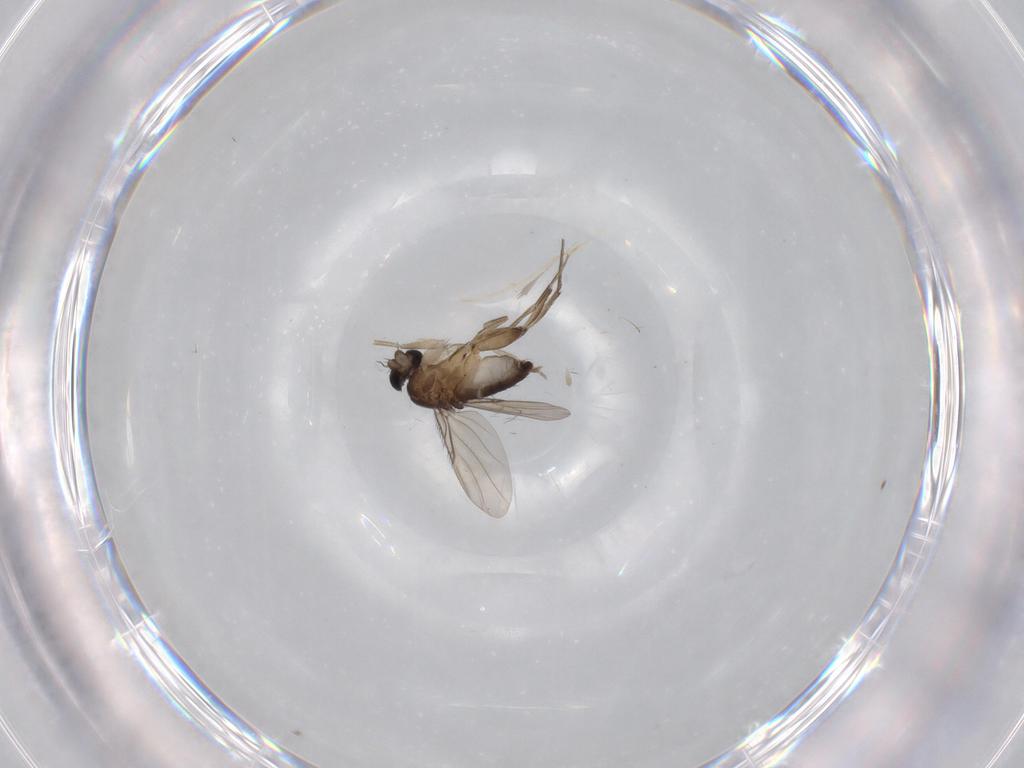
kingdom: Animalia
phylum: Arthropoda
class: Insecta
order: Diptera
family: Phoridae
